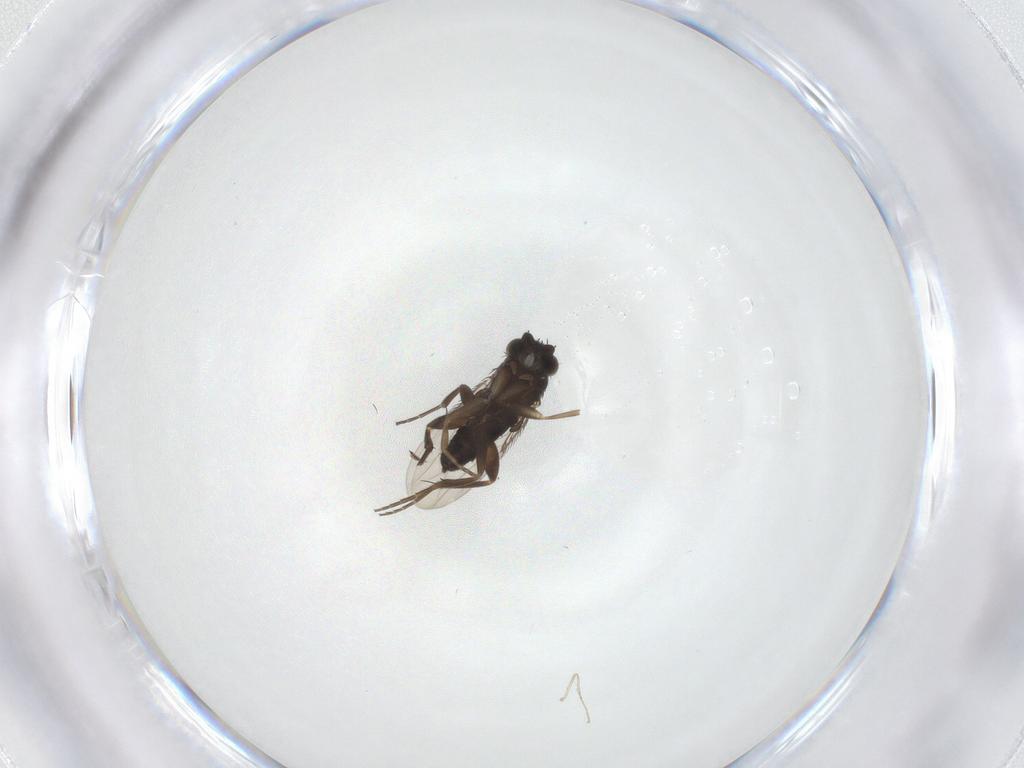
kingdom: Animalia
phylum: Arthropoda
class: Insecta
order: Diptera
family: Cecidomyiidae
